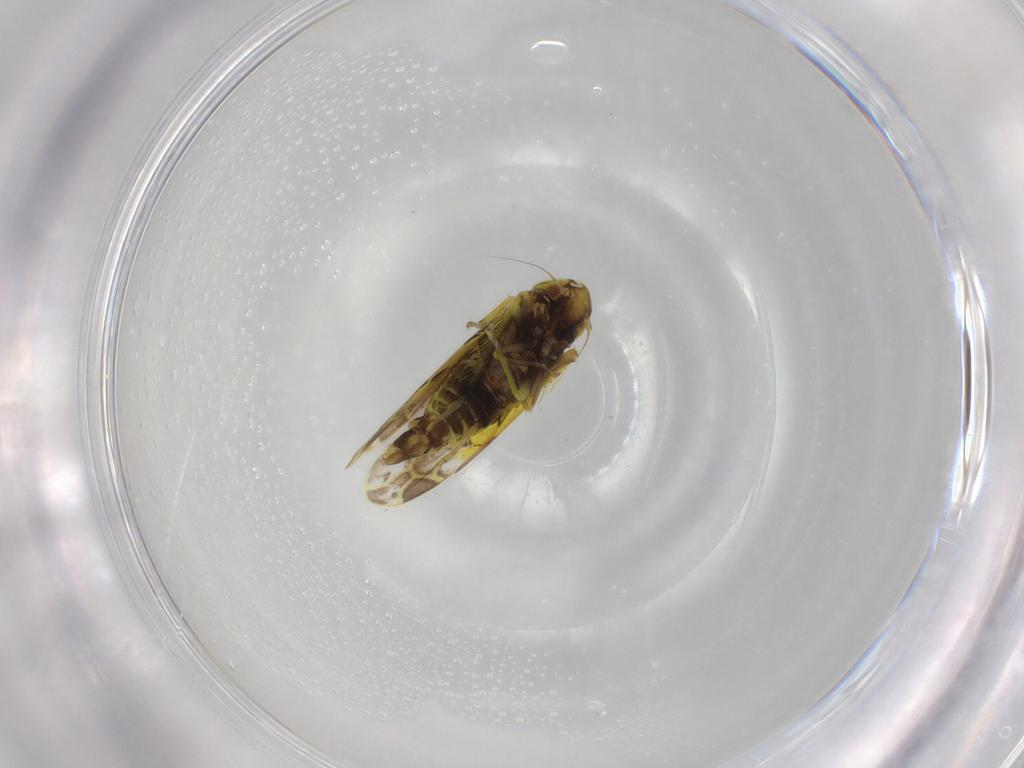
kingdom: Animalia
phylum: Arthropoda
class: Insecta
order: Hemiptera
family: Cicadellidae
